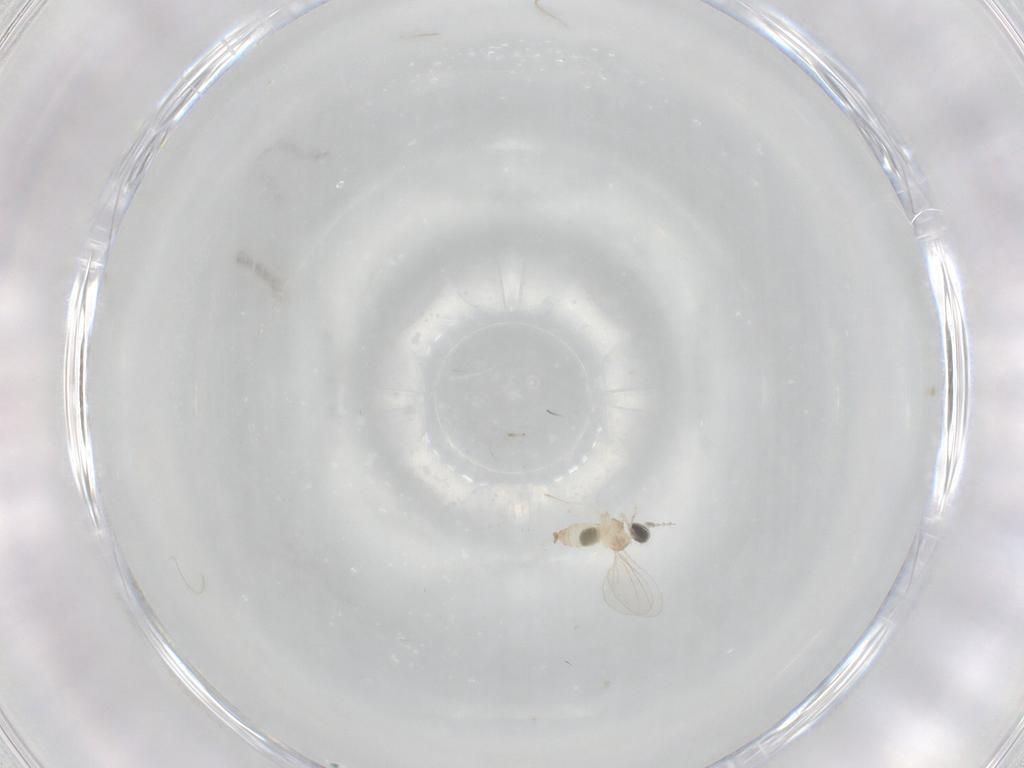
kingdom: Animalia
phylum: Arthropoda
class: Insecta
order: Diptera
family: Cecidomyiidae
